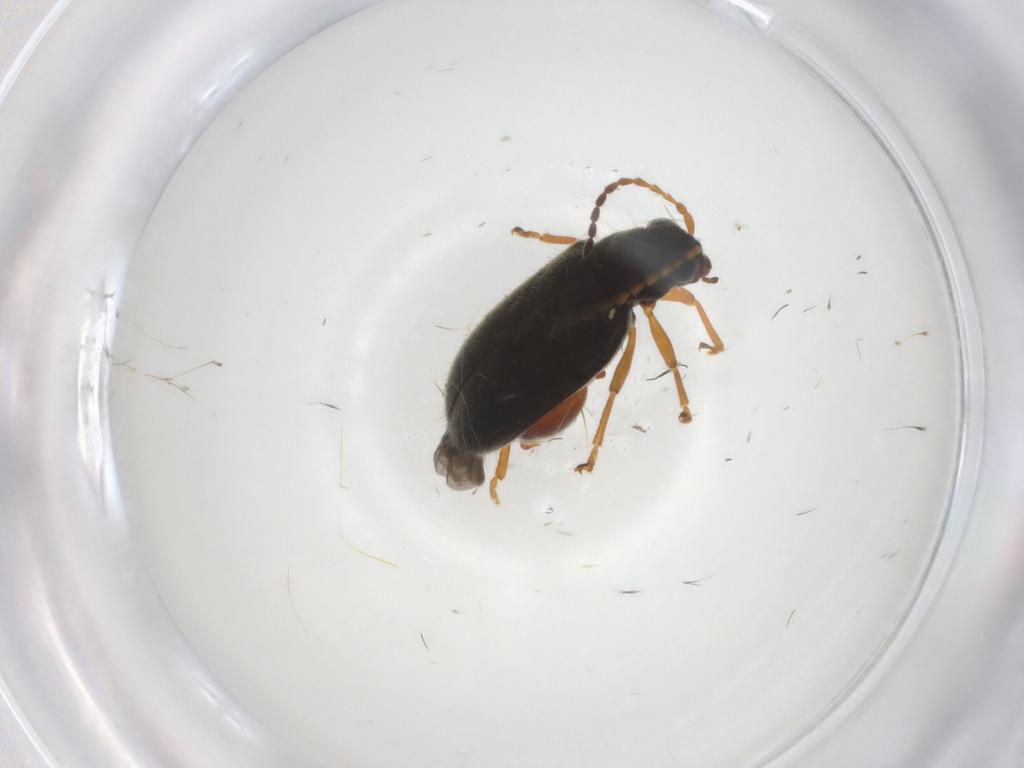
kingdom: Animalia
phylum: Arthropoda
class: Insecta
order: Coleoptera
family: Chrysomelidae
